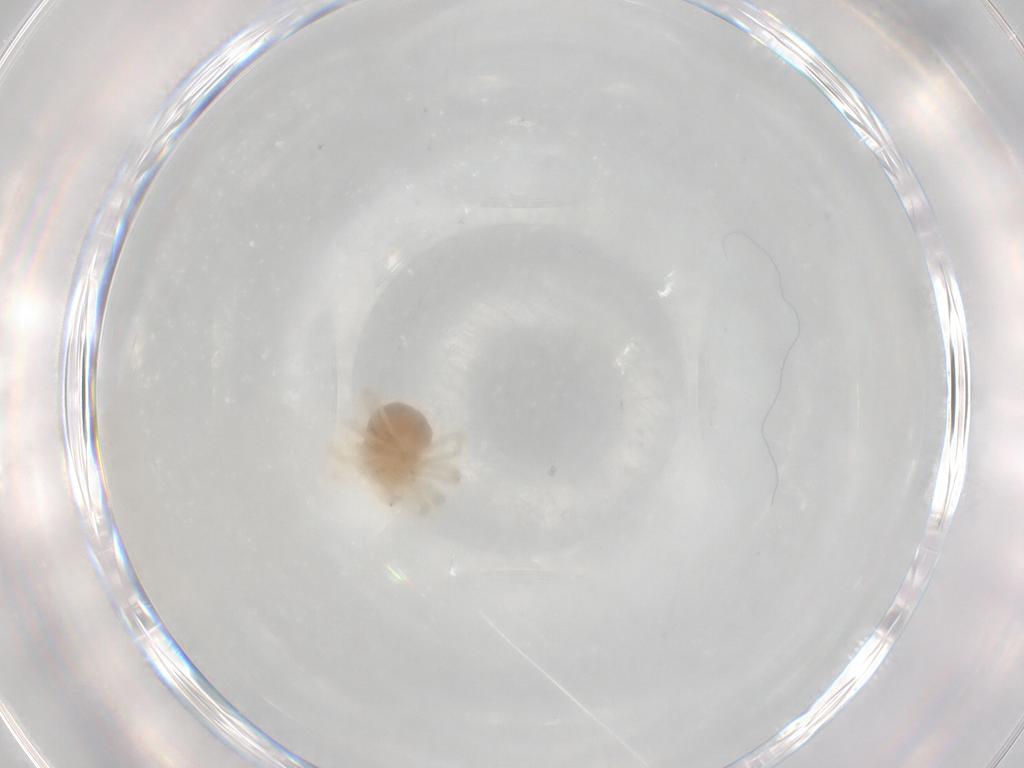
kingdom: Animalia
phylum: Arthropoda
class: Arachnida
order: Trombidiformes
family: Anystidae
